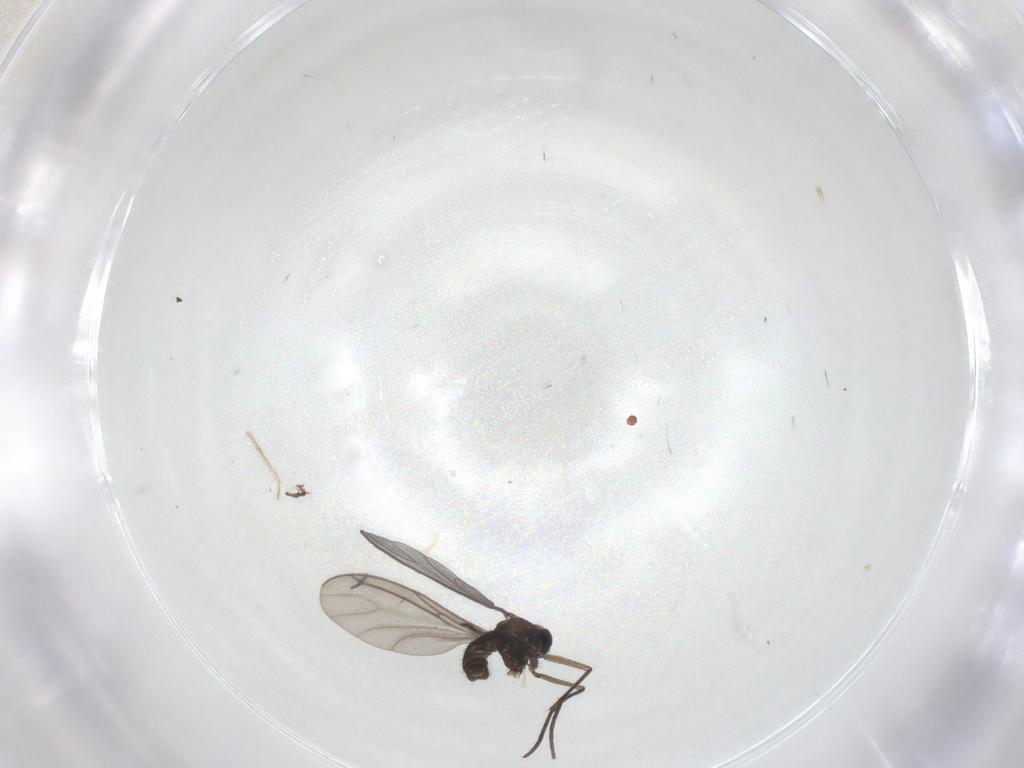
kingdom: Animalia
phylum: Arthropoda
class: Insecta
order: Diptera
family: Sciaridae
